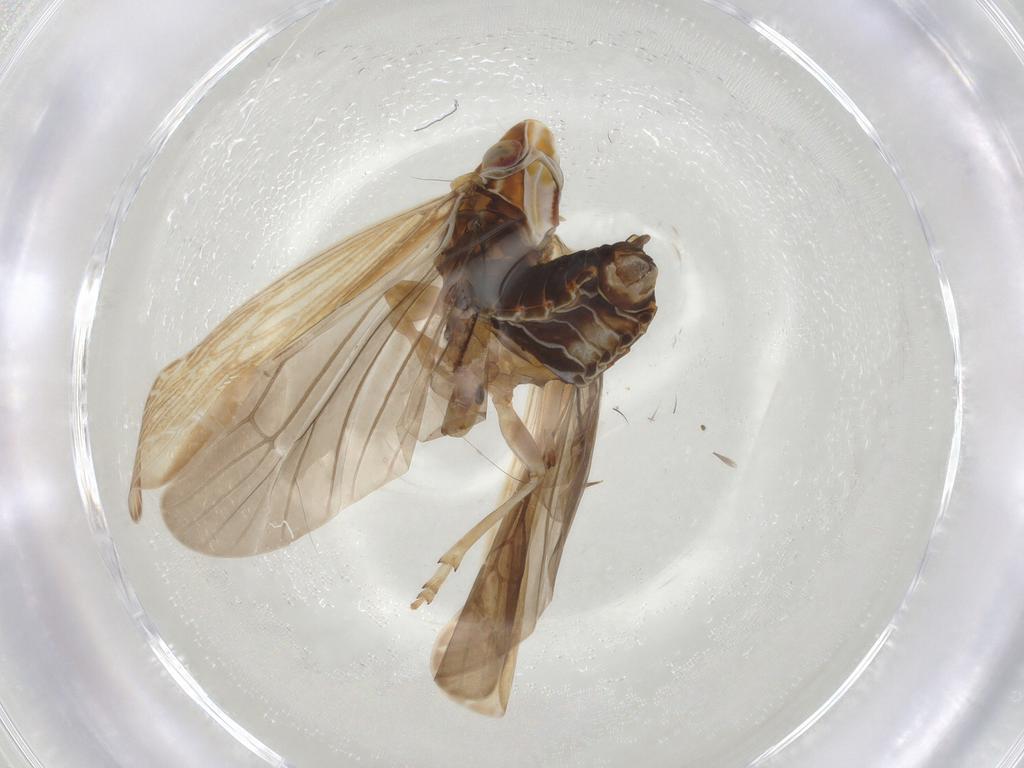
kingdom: Animalia
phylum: Arthropoda
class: Insecta
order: Hemiptera
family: Achilidae
